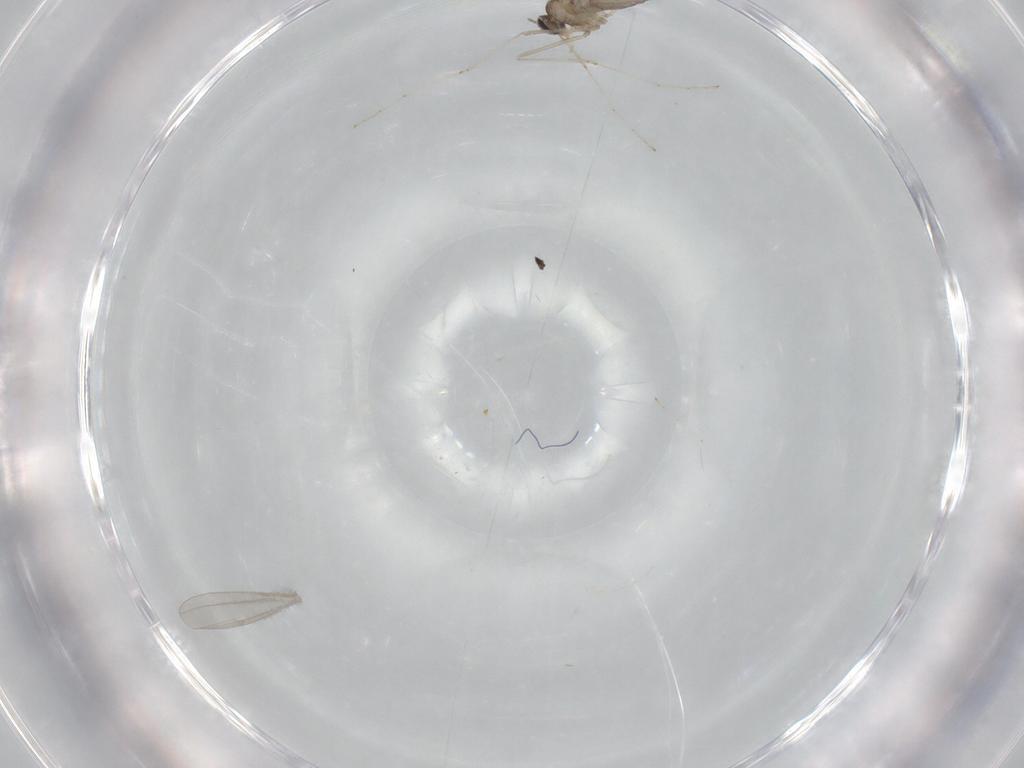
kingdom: Animalia
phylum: Arthropoda
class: Insecta
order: Diptera
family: Cecidomyiidae
